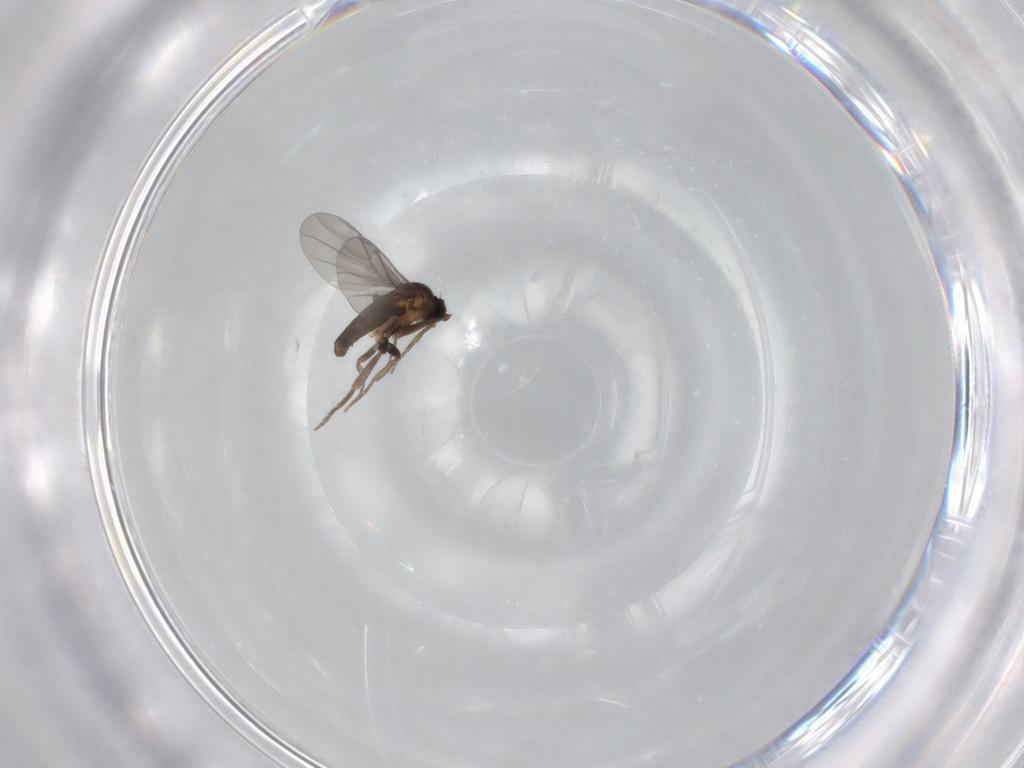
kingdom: Animalia
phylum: Arthropoda
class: Insecta
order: Diptera
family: Phoridae
